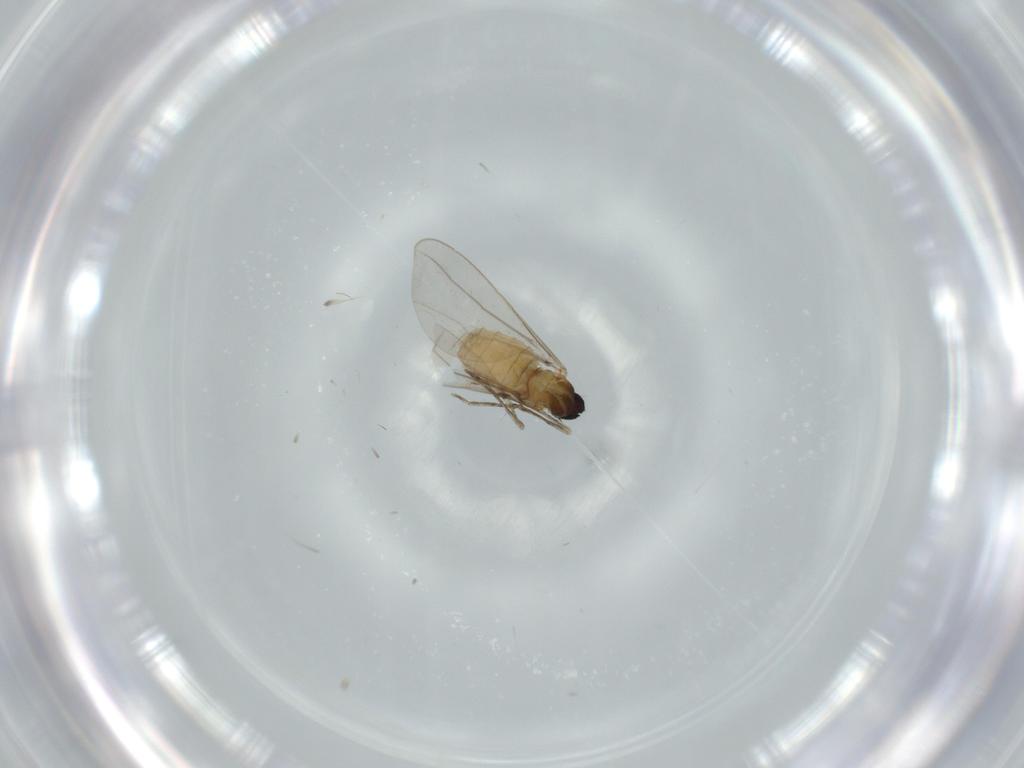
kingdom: Animalia
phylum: Arthropoda
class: Insecta
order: Diptera
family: Cecidomyiidae
